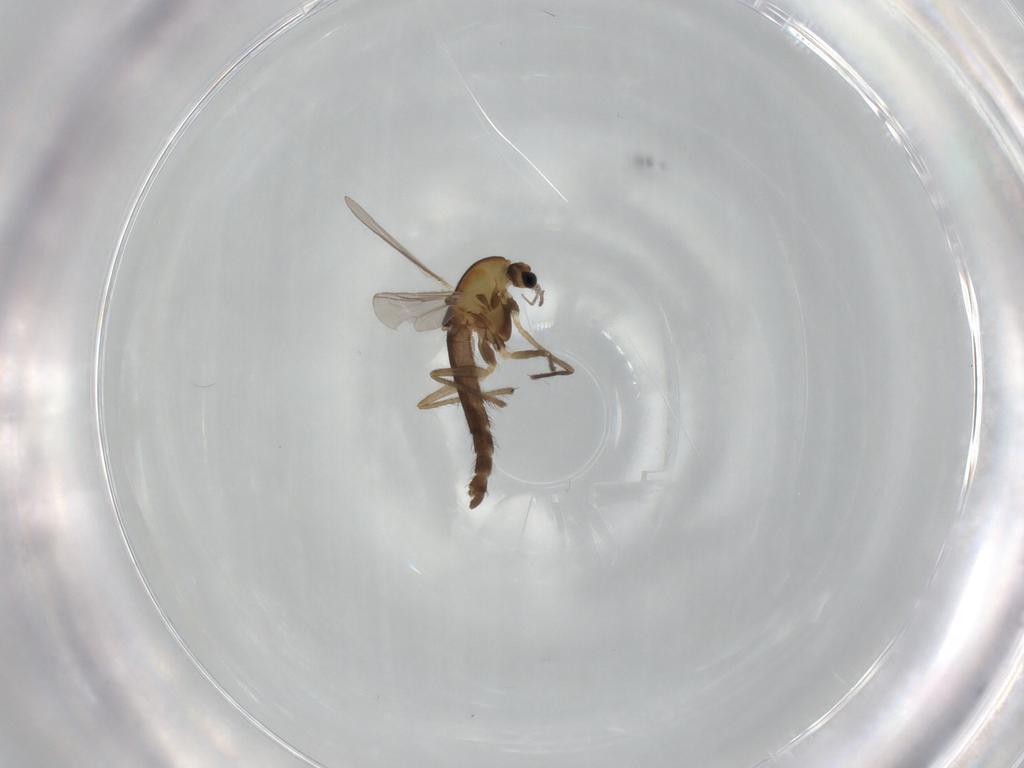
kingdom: Animalia
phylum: Arthropoda
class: Insecta
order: Diptera
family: Chironomidae
